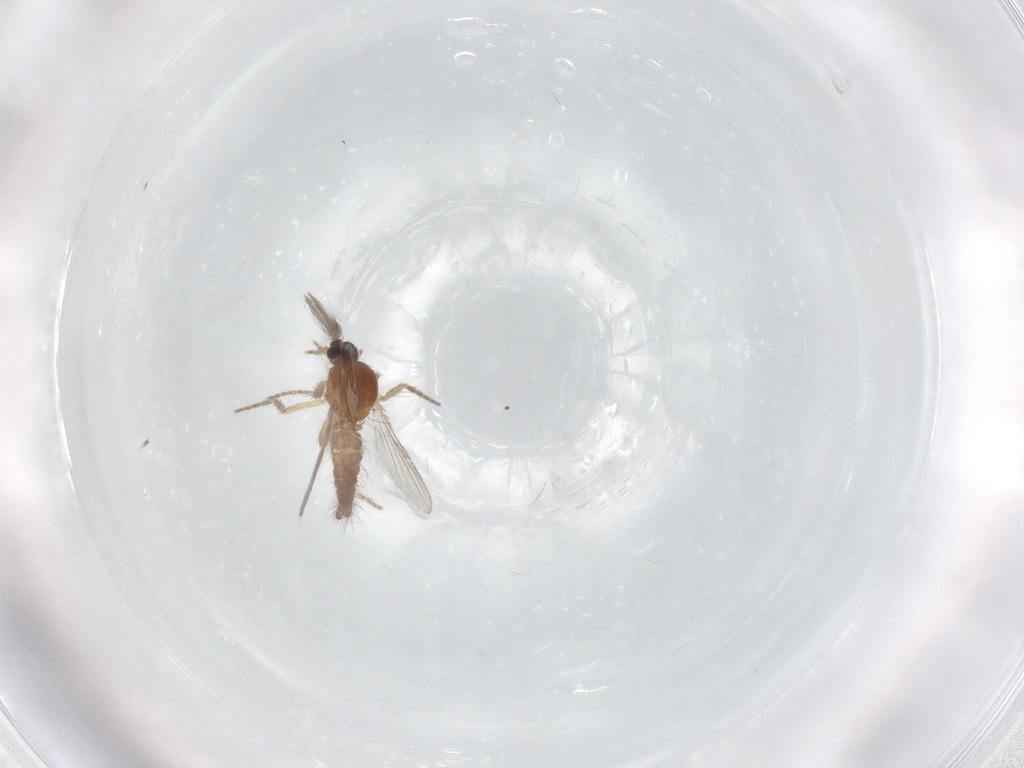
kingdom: Animalia
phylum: Arthropoda
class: Insecta
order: Diptera
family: Ceratopogonidae
